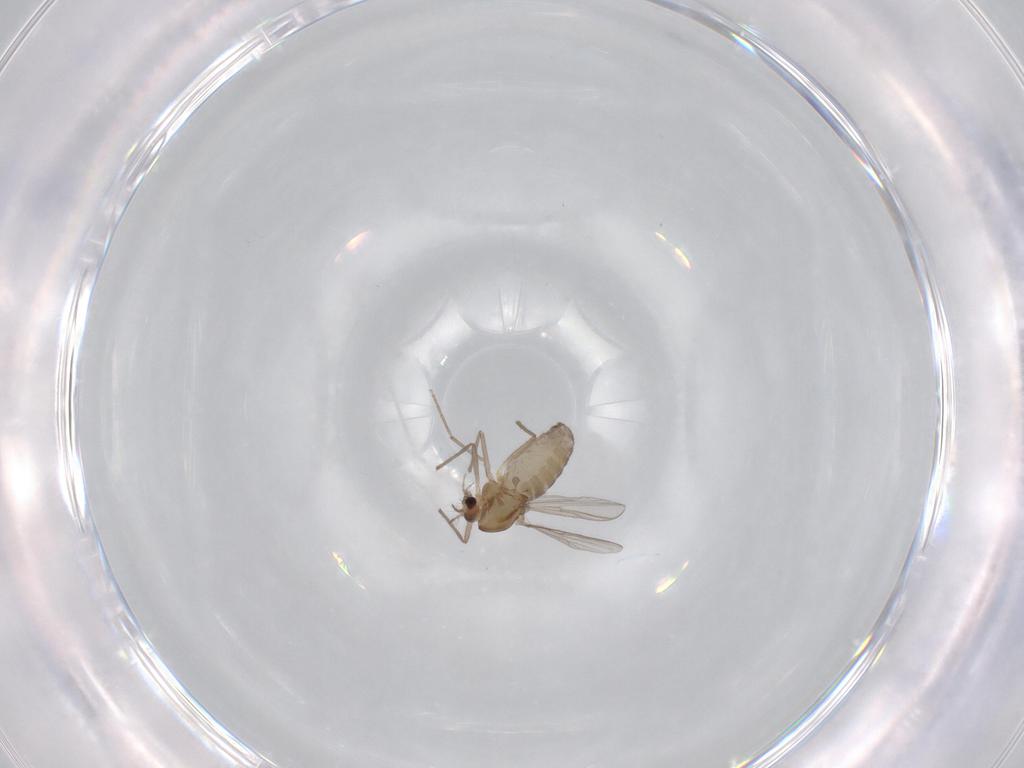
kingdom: Animalia
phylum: Arthropoda
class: Insecta
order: Diptera
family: Chironomidae
